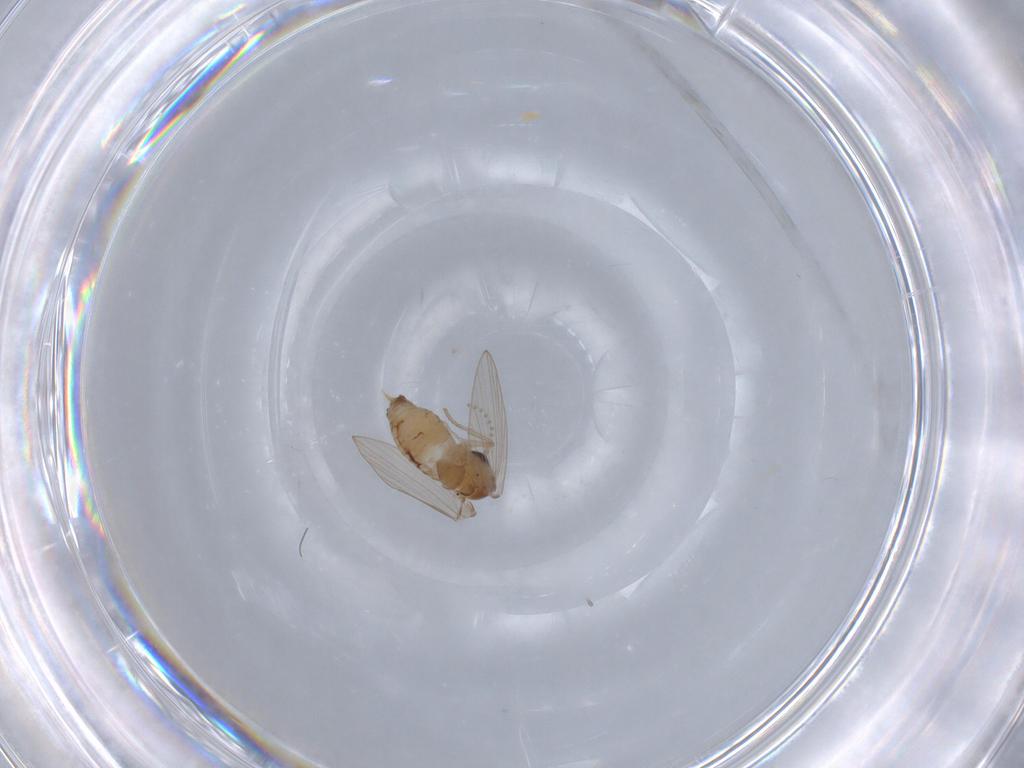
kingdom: Animalia
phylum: Arthropoda
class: Insecta
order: Diptera
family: Psychodidae
